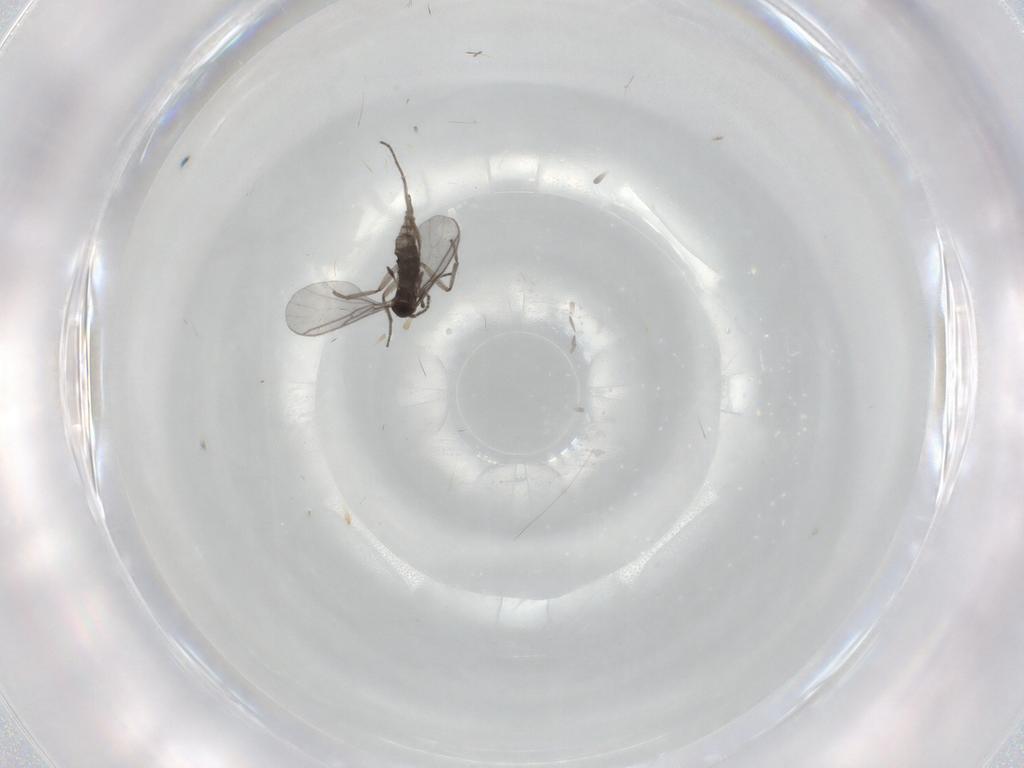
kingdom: Animalia
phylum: Arthropoda
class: Insecta
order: Diptera
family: Cecidomyiidae
